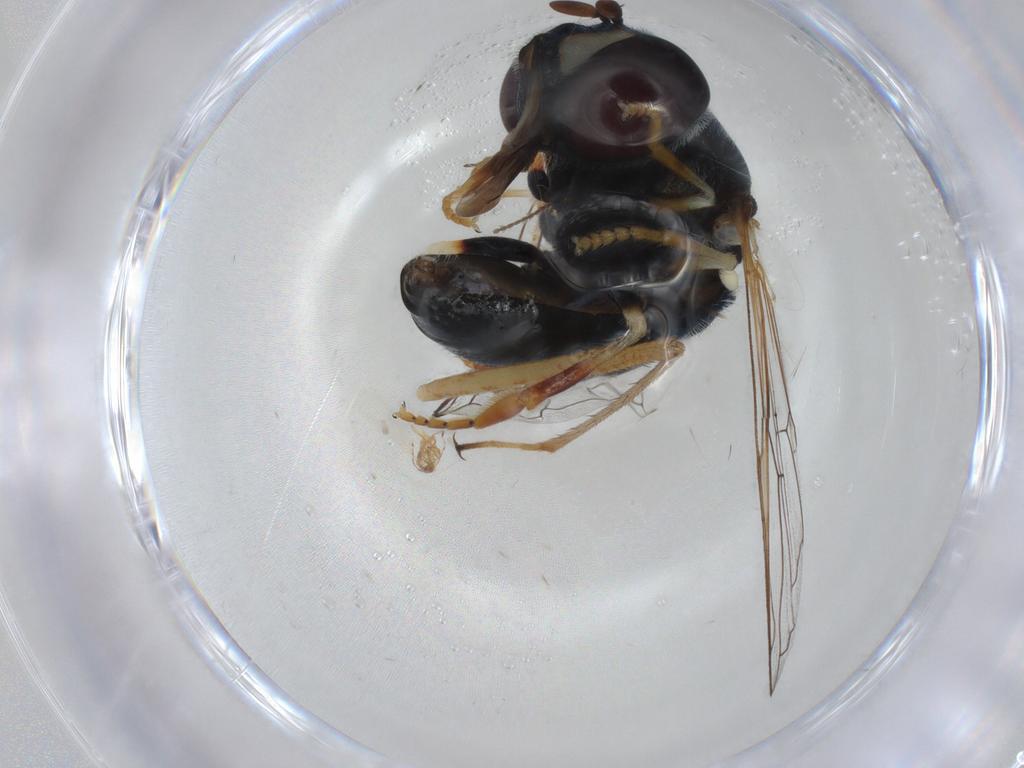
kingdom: Animalia
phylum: Arthropoda
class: Insecta
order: Diptera
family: Syrphidae
